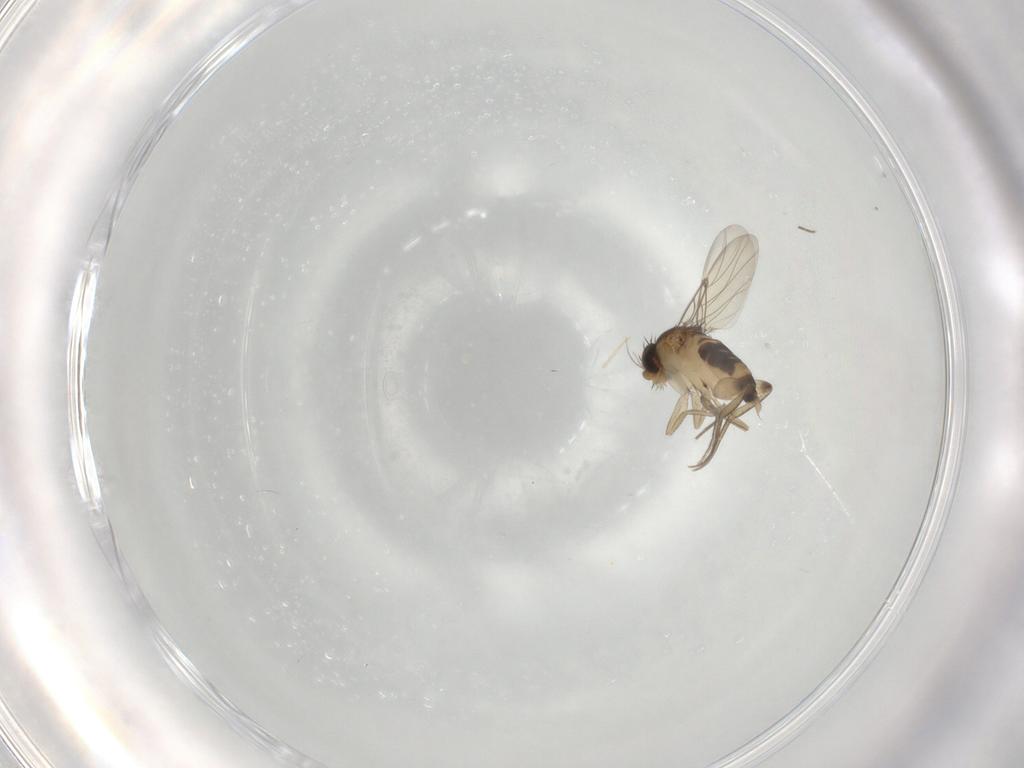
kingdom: Animalia
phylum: Arthropoda
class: Insecta
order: Diptera
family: Phoridae
